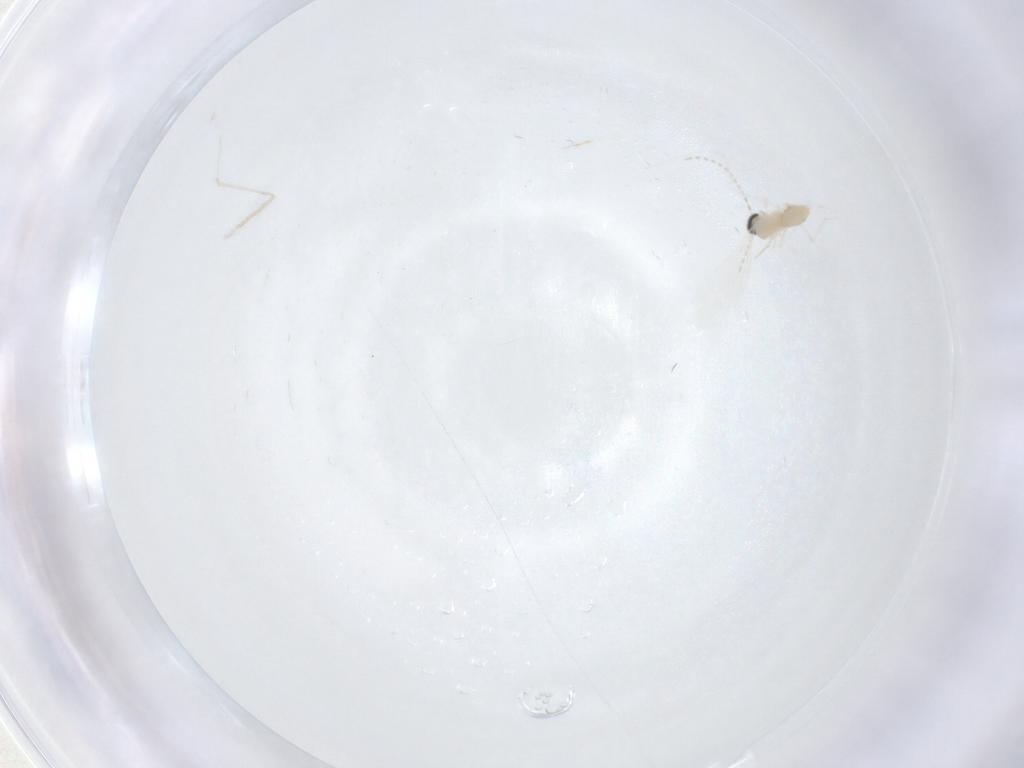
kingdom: Animalia
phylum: Arthropoda
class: Insecta
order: Diptera
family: Cecidomyiidae
